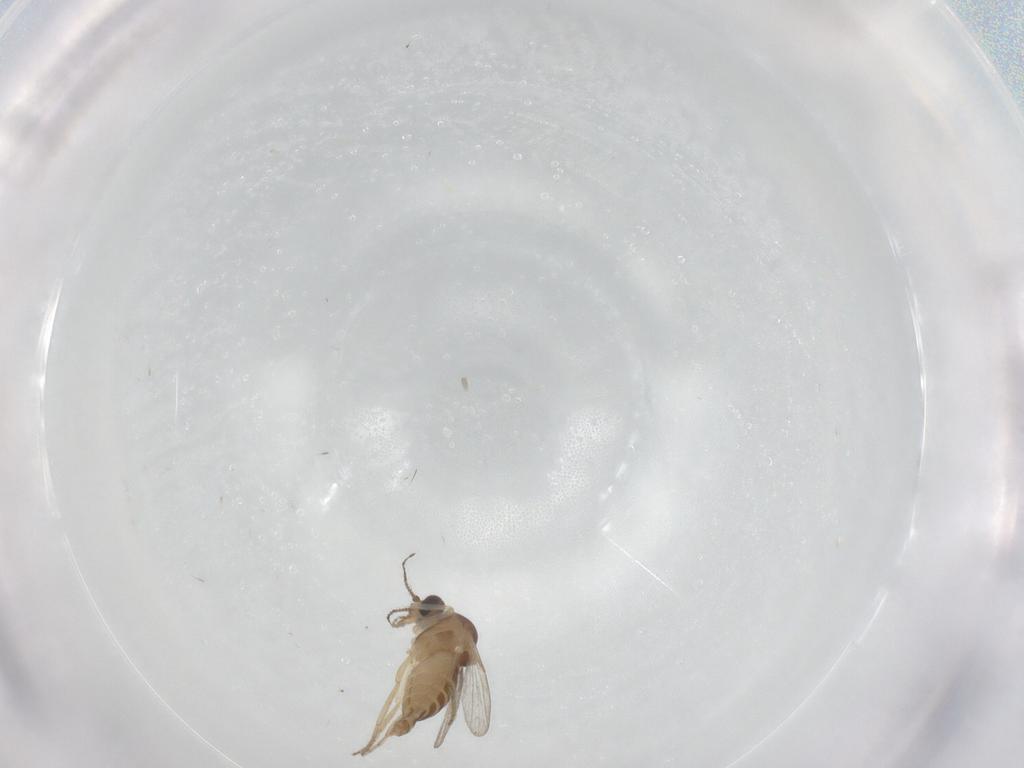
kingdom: Animalia
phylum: Arthropoda
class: Insecta
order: Diptera
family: Ceratopogonidae
